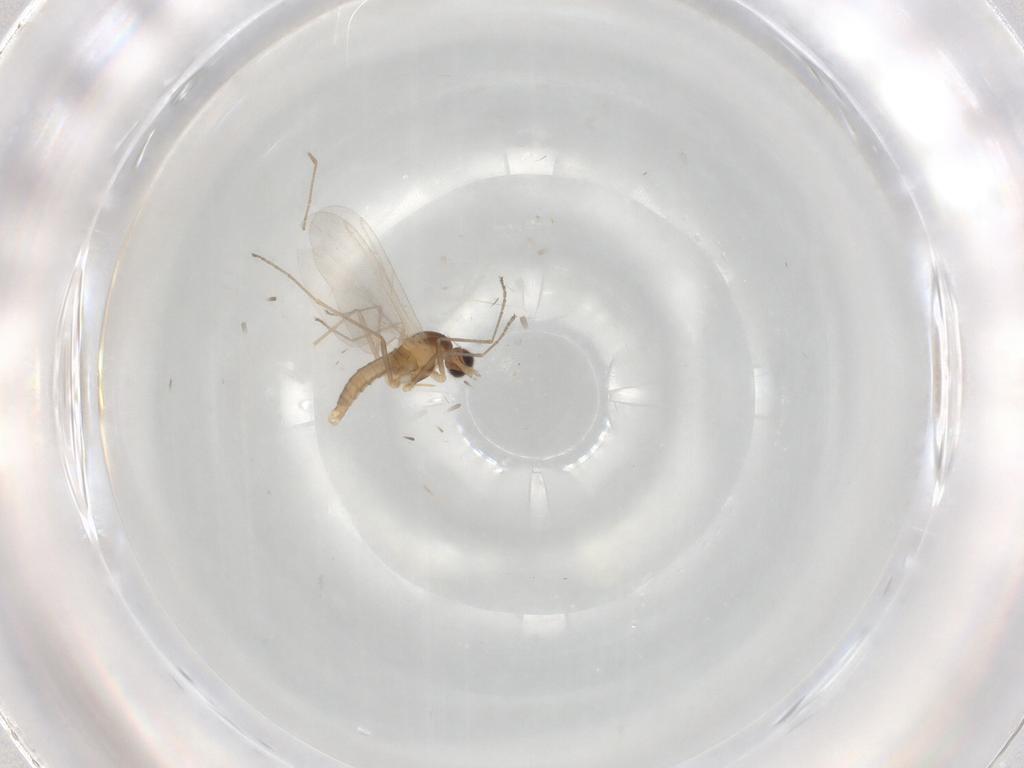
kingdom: Animalia
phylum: Arthropoda
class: Insecta
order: Diptera
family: Cecidomyiidae
